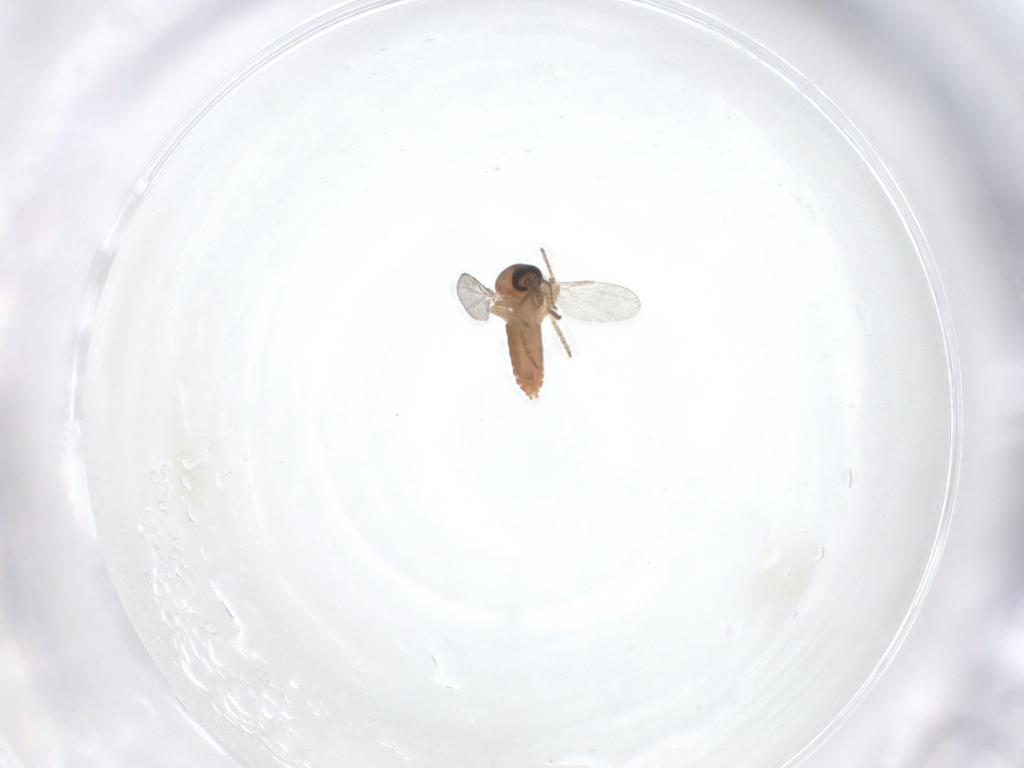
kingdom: Animalia
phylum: Arthropoda
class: Insecta
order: Diptera
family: Ceratopogonidae
